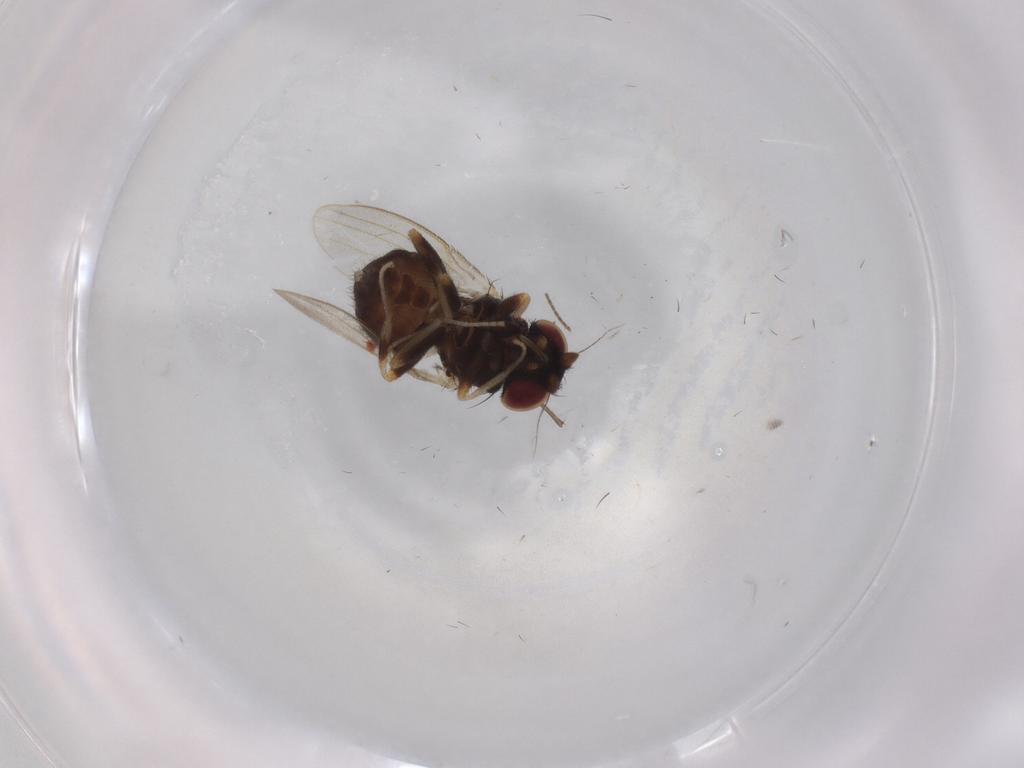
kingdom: Animalia
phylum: Arthropoda
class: Insecta
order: Diptera
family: Milichiidae
